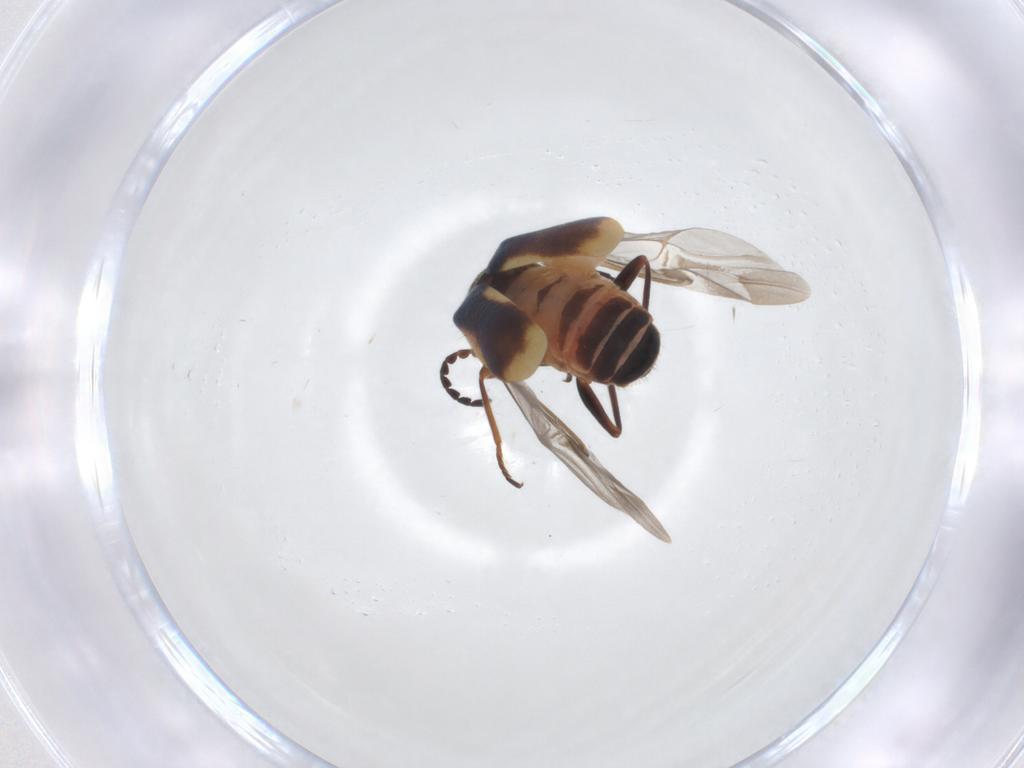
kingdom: Animalia
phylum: Arthropoda
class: Insecta
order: Coleoptera
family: Melyridae
